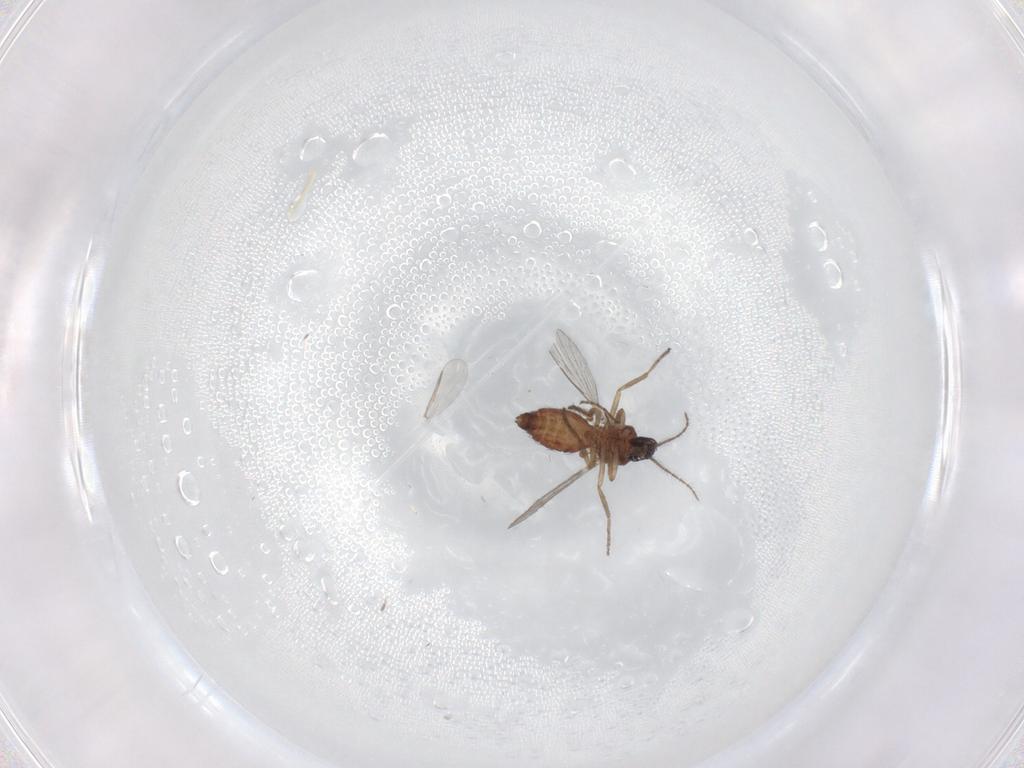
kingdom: Animalia
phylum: Arthropoda
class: Insecta
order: Diptera
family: Ceratopogonidae
